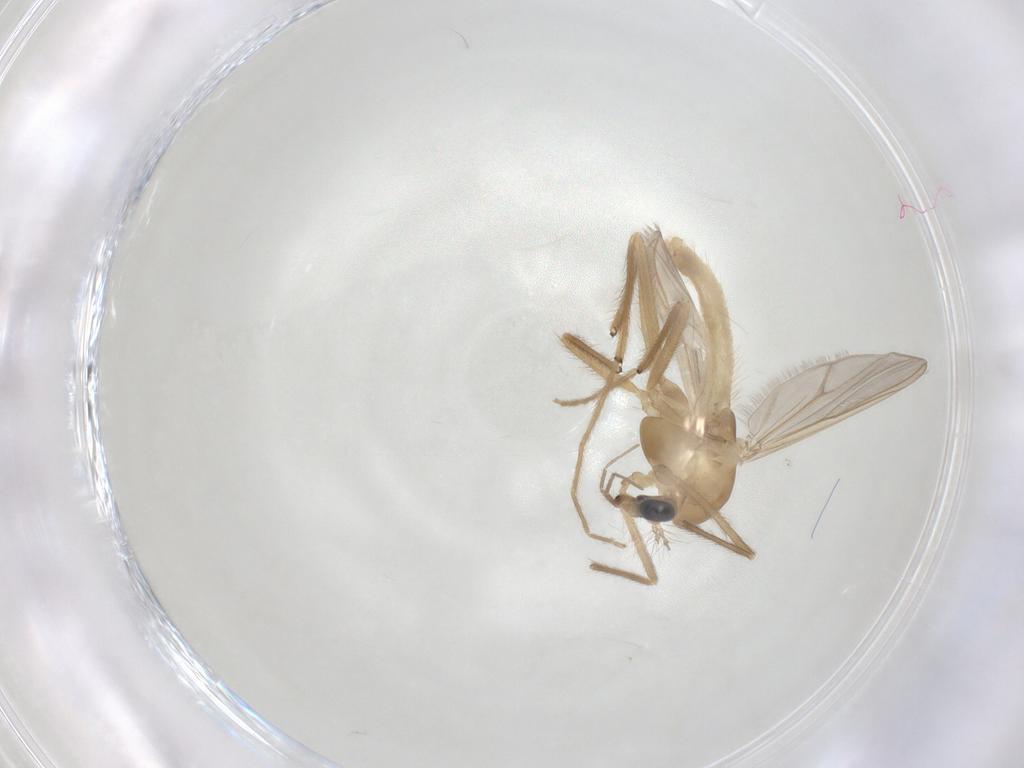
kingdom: Animalia
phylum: Arthropoda
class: Insecta
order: Diptera
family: Chironomidae
